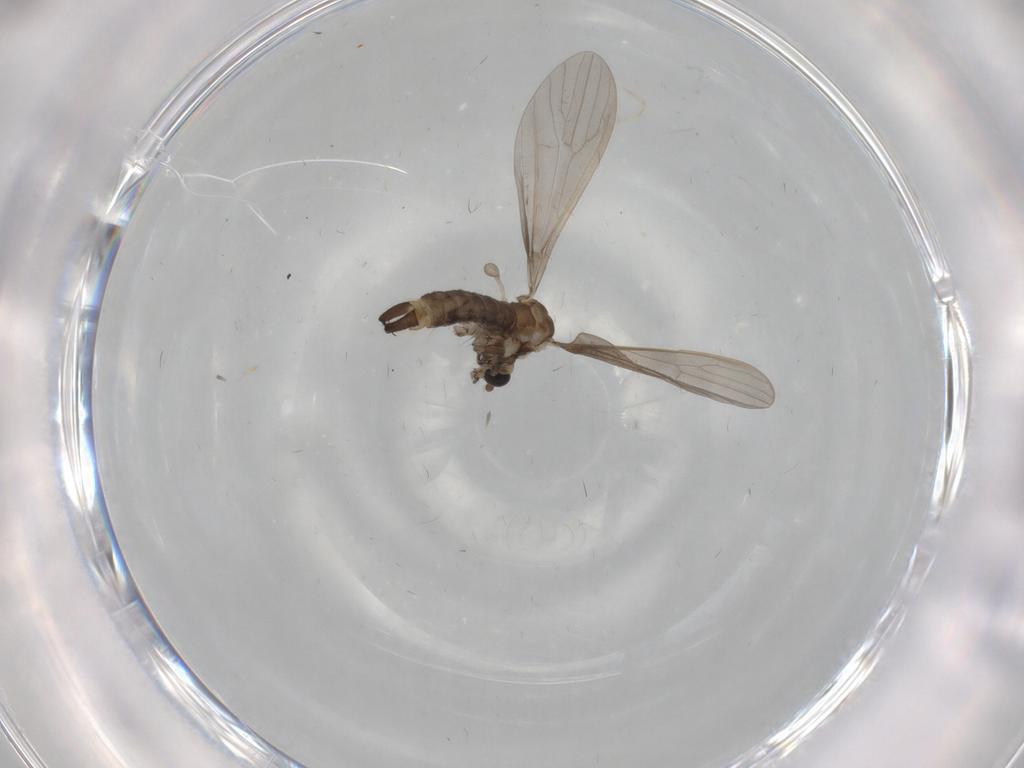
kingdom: Animalia
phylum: Arthropoda
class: Insecta
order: Diptera
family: Limoniidae
